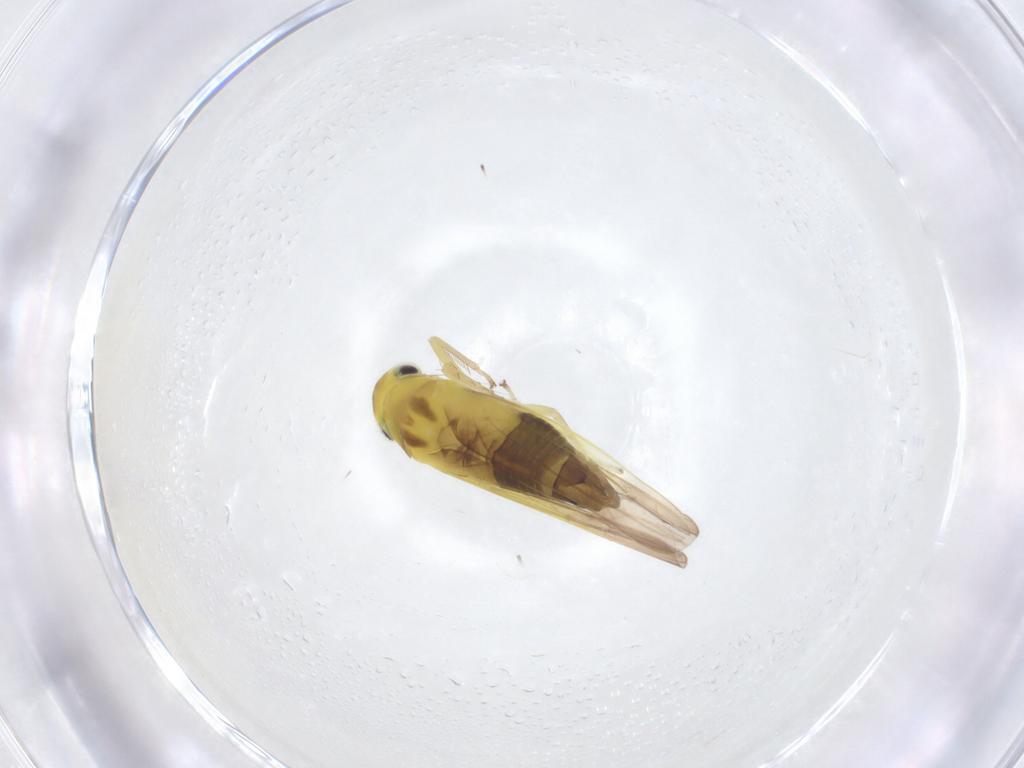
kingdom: Animalia
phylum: Arthropoda
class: Insecta
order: Hemiptera
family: Cicadellidae
